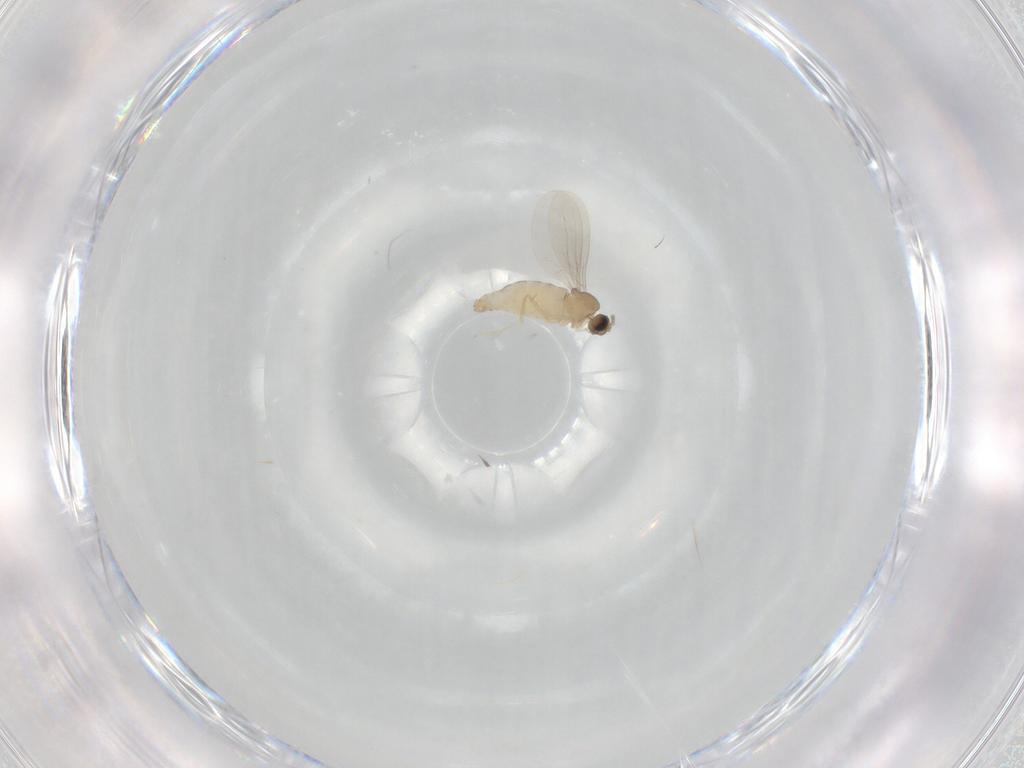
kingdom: Animalia
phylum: Arthropoda
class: Insecta
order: Diptera
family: Cecidomyiidae
